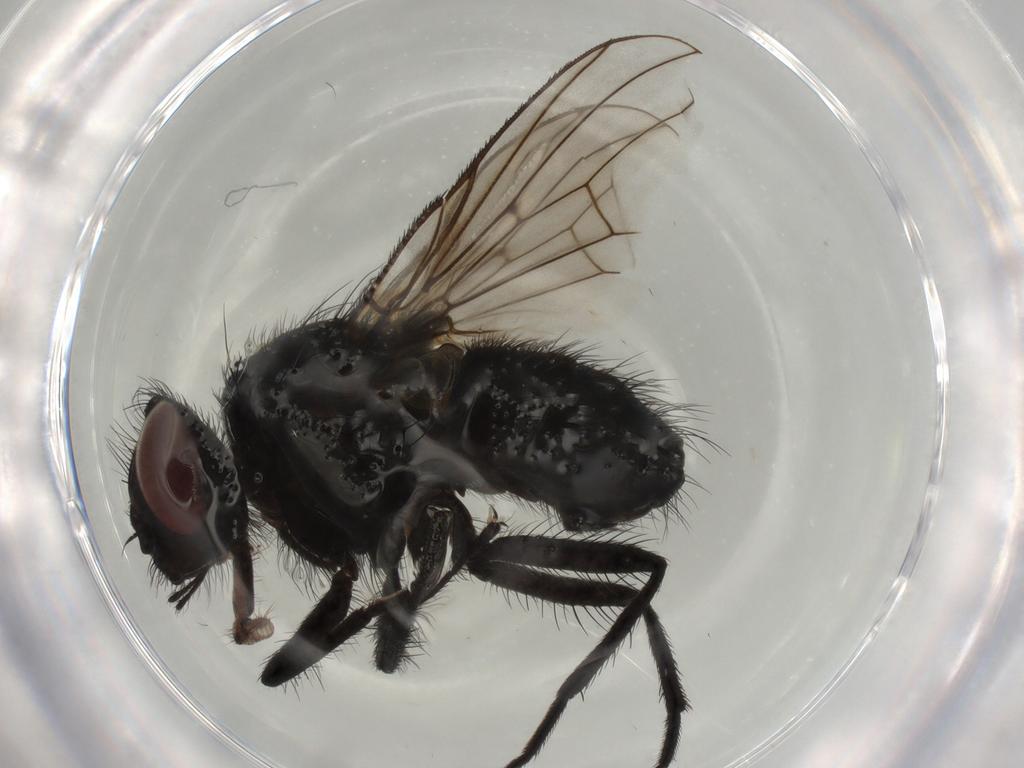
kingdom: Animalia
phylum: Arthropoda
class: Insecta
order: Diptera
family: Muscidae
